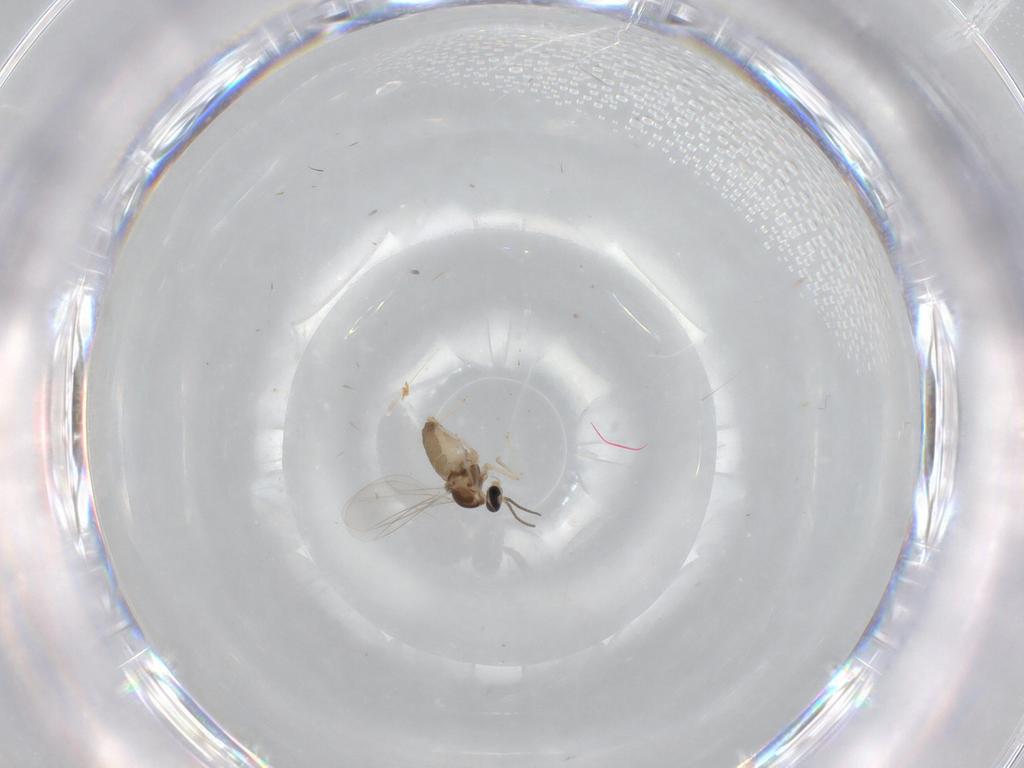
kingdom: Animalia
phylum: Arthropoda
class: Insecta
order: Diptera
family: Cecidomyiidae
